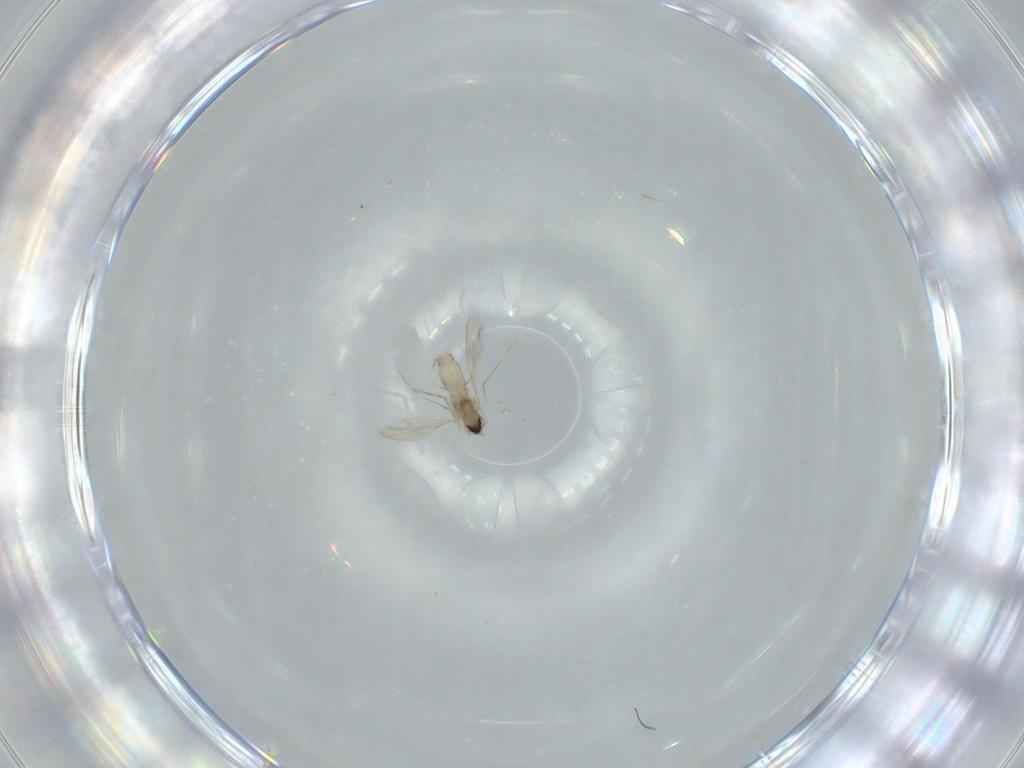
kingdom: Animalia
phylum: Arthropoda
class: Insecta
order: Diptera
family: Cecidomyiidae
